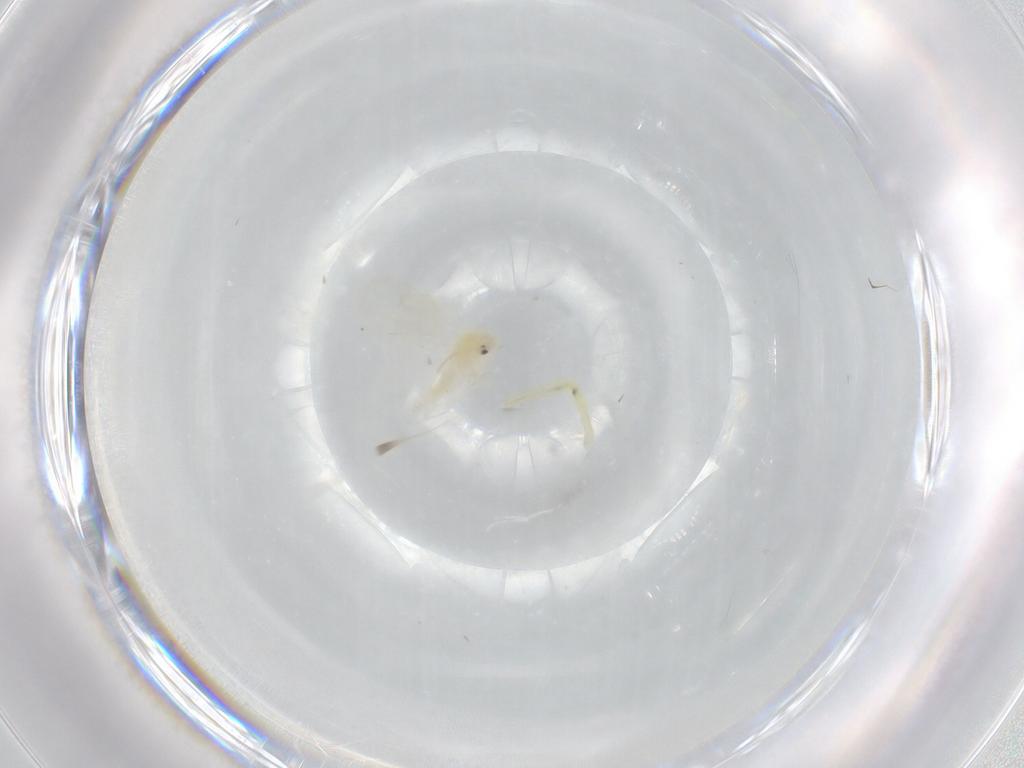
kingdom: Animalia
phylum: Arthropoda
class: Insecta
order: Hemiptera
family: Aleyrodidae
